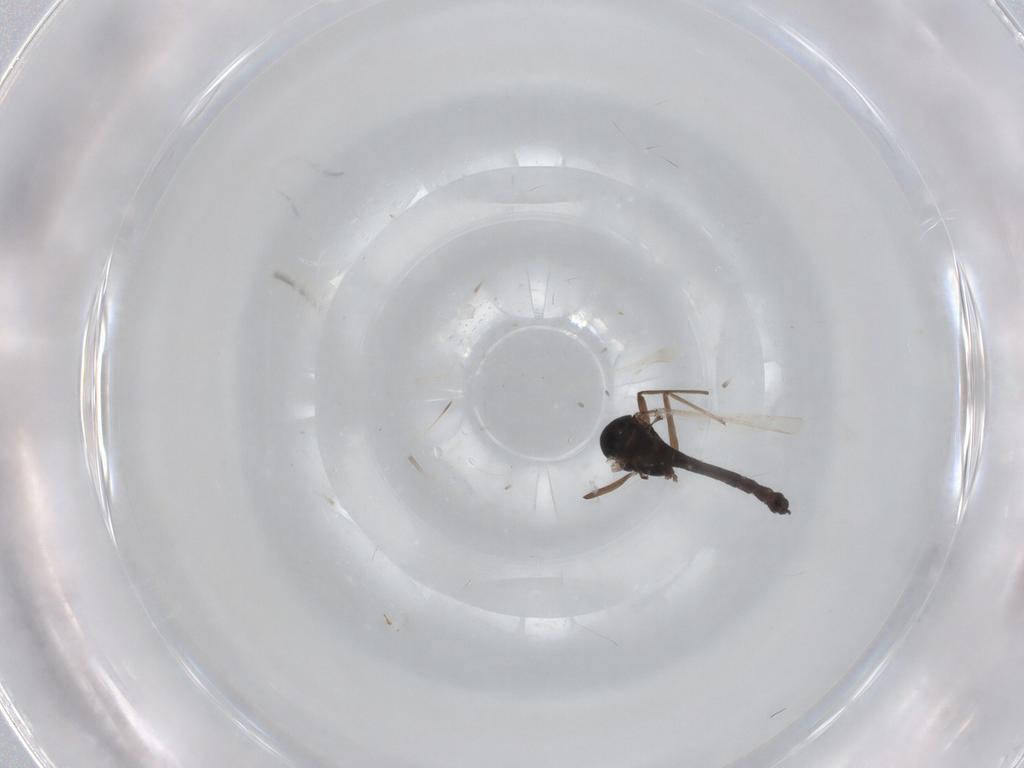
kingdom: Animalia
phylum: Arthropoda
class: Insecta
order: Diptera
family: Chironomidae
